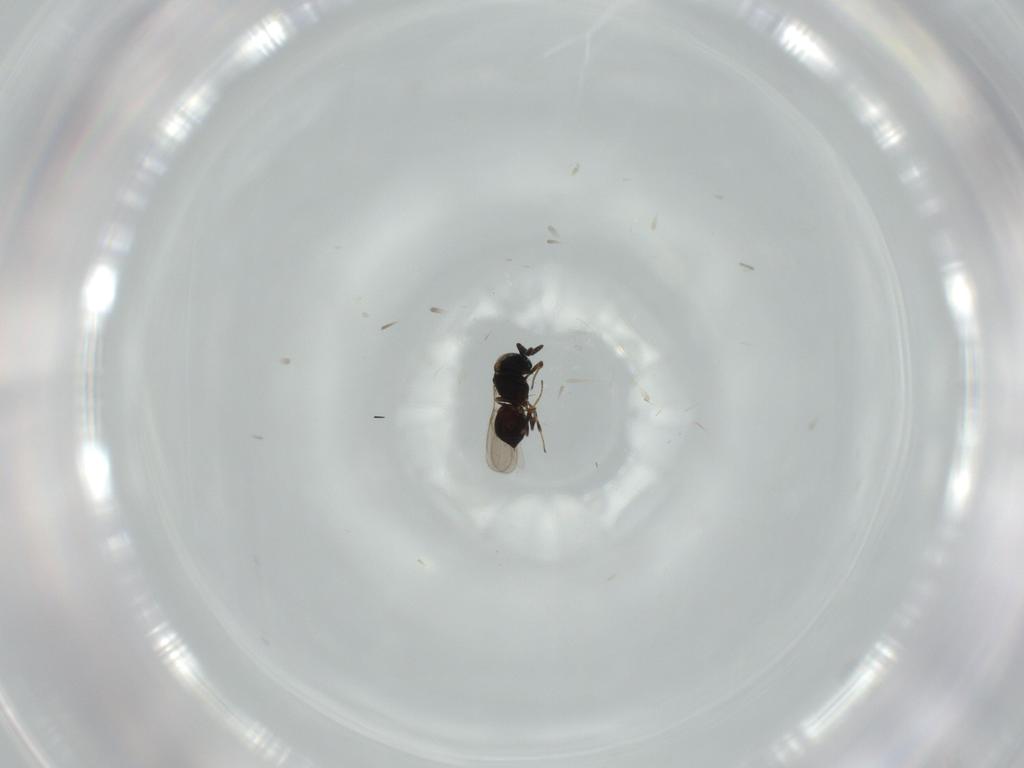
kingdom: Animalia
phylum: Arthropoda
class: Insecta
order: Hymenoptera
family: Scelionidae
